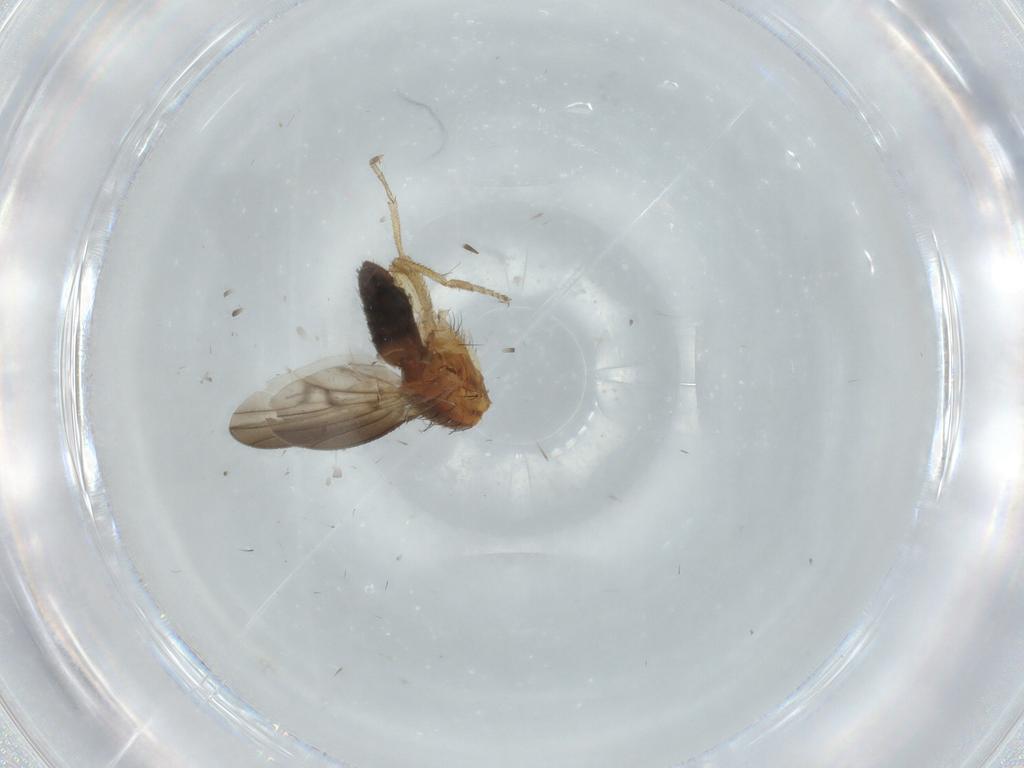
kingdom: Animalia
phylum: Arthropoda
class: Insecta
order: Diptera
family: Heleomyzidae
